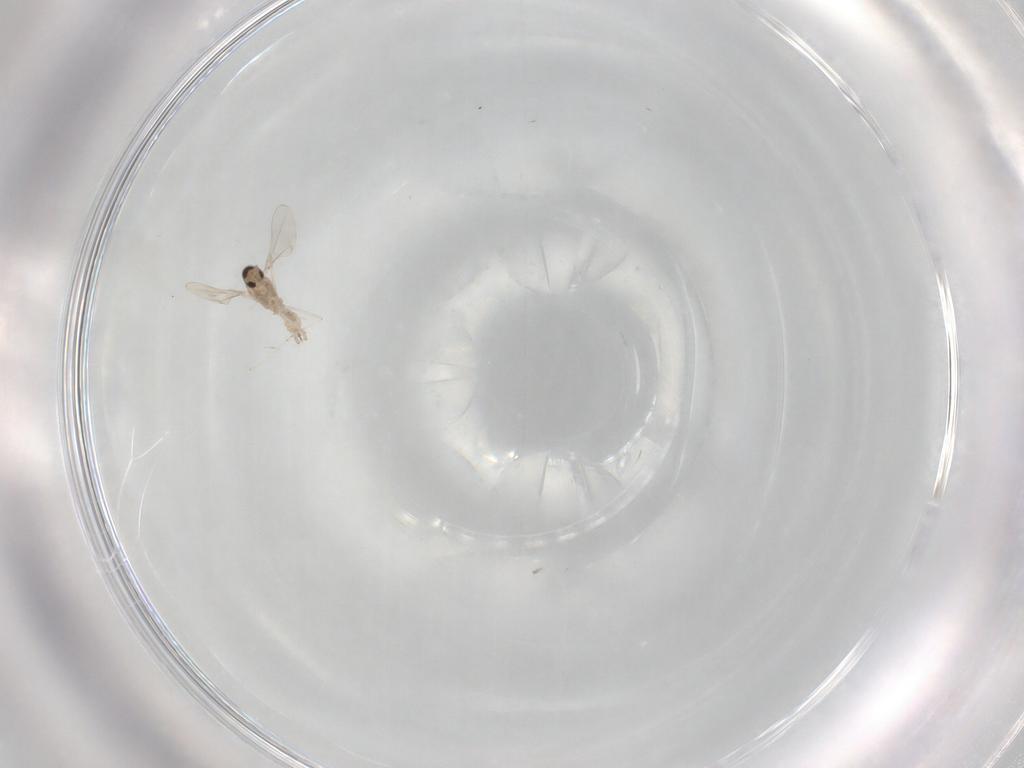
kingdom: Animalia
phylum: Arthropoda
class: Insecta
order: Diptera
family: Cecidomyiidae
